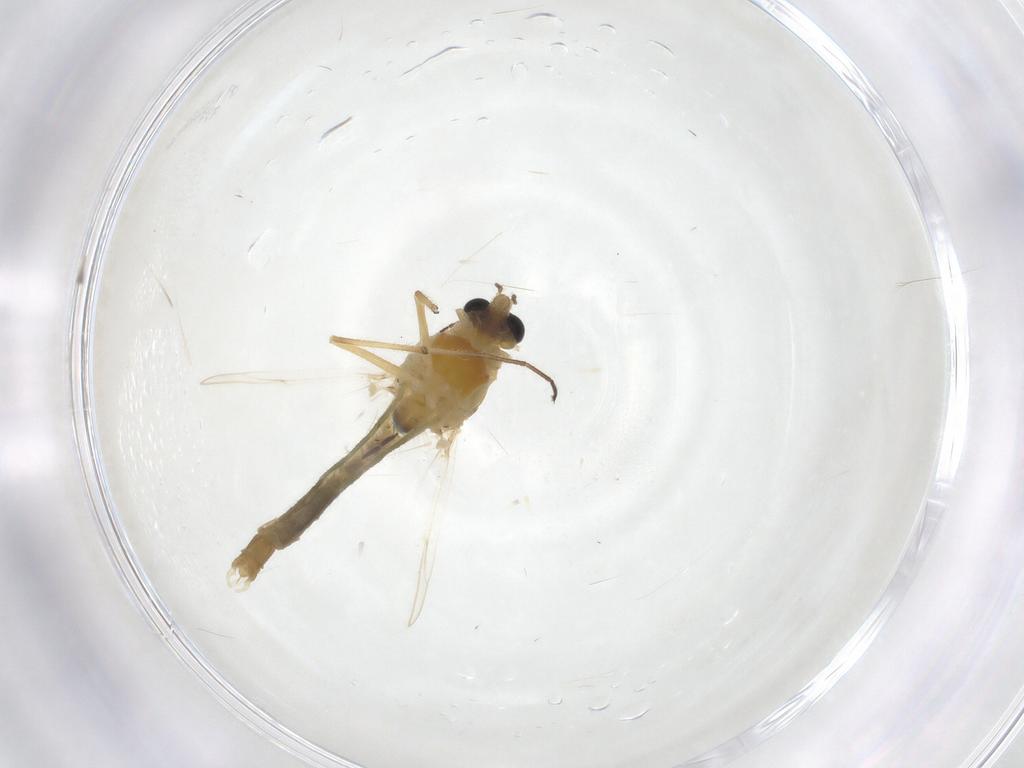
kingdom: Animalia
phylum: Arthropoda
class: Insecta
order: Diptera
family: Chironomidae
